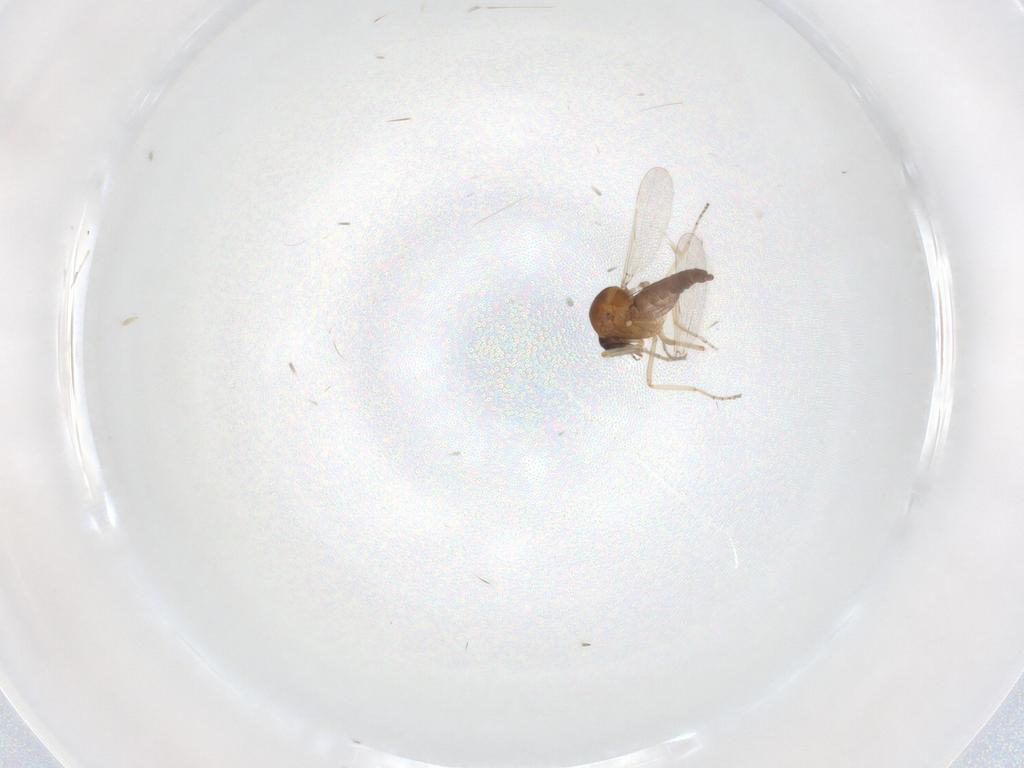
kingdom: Animalia
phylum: Arthropoda
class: Insecta
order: Diptera
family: Ceratopogonidae
